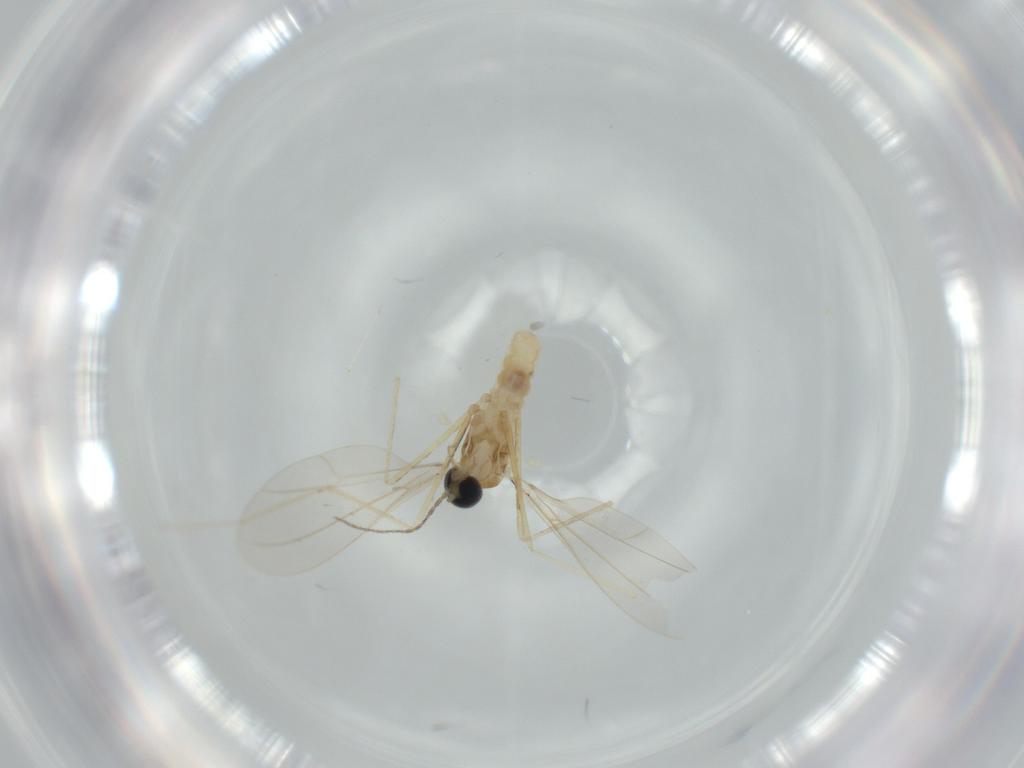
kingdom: Animalia
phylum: Arthropoda
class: Insecta
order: Diptera
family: Cecidomyiidae
